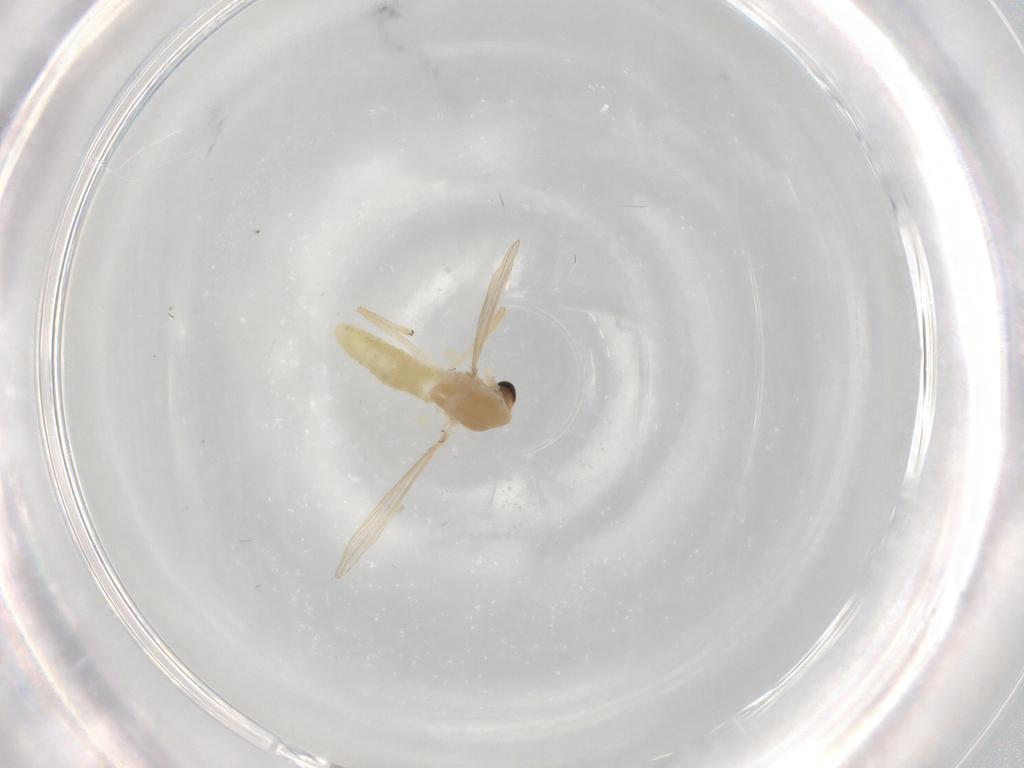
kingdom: Animalia
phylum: Arthropoda
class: Insecta
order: Diptera
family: Chironomidae
